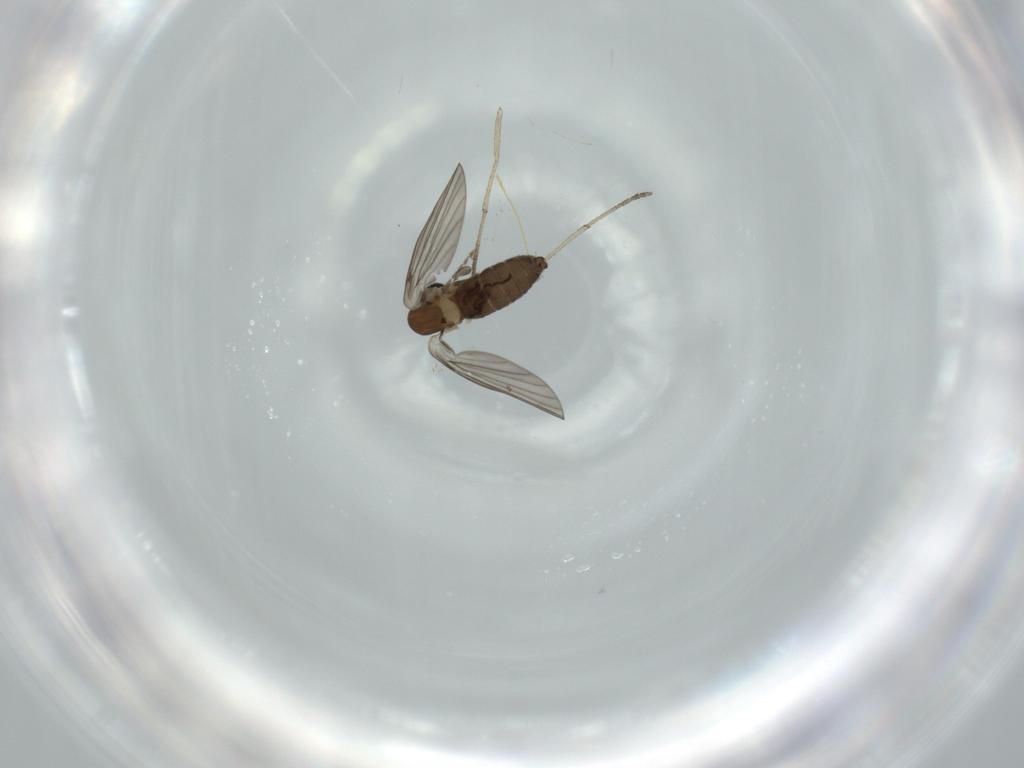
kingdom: Animalia
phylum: Arthropoda
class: Insecta
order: Diptera
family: Psychodidae
